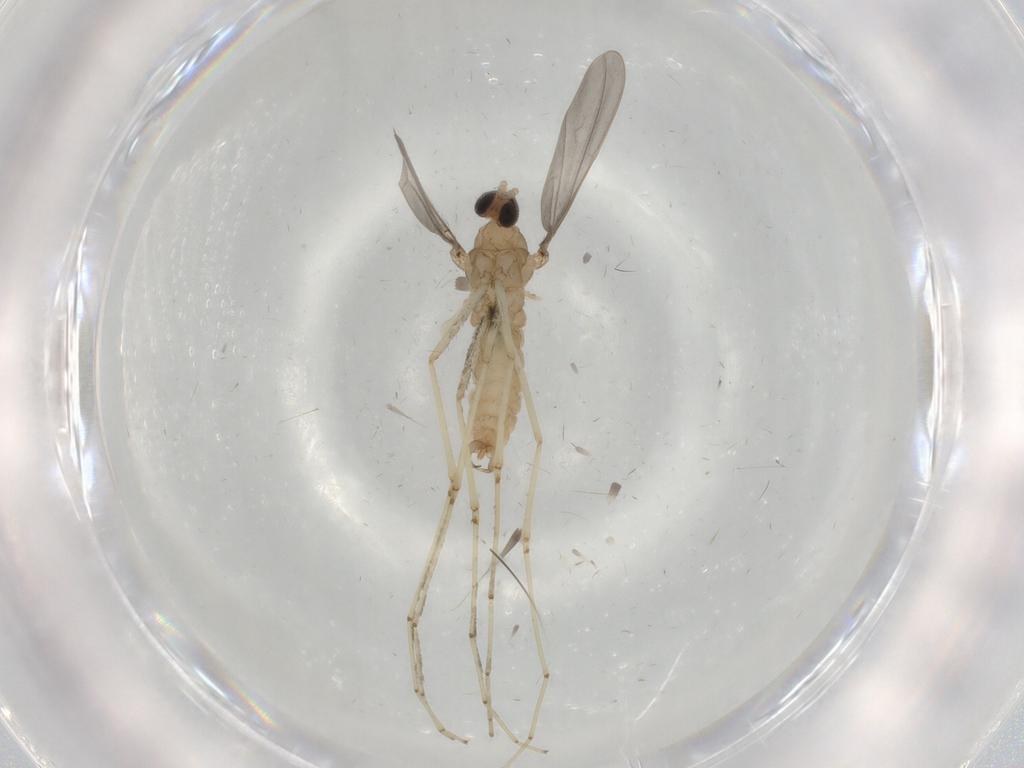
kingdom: Animalia
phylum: Arthropoda
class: Insecta
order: Diptera
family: Cecidomyiidae
